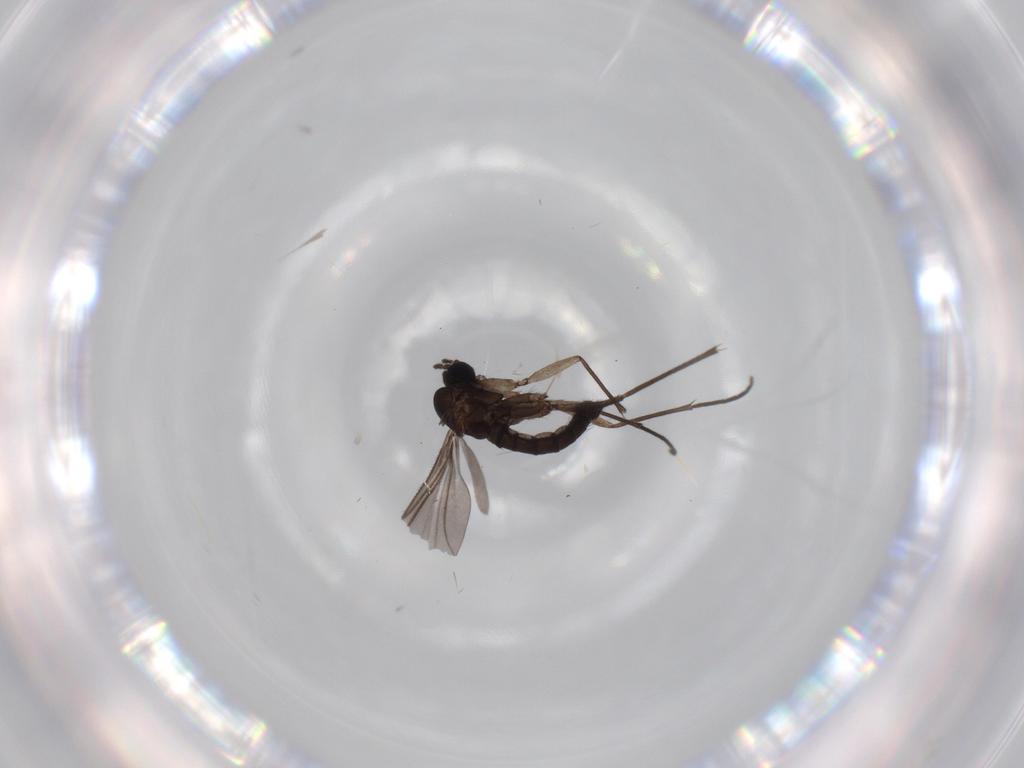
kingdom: Animalia
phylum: Arthropoda
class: Insecta
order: Diptera
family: Sciaridae
